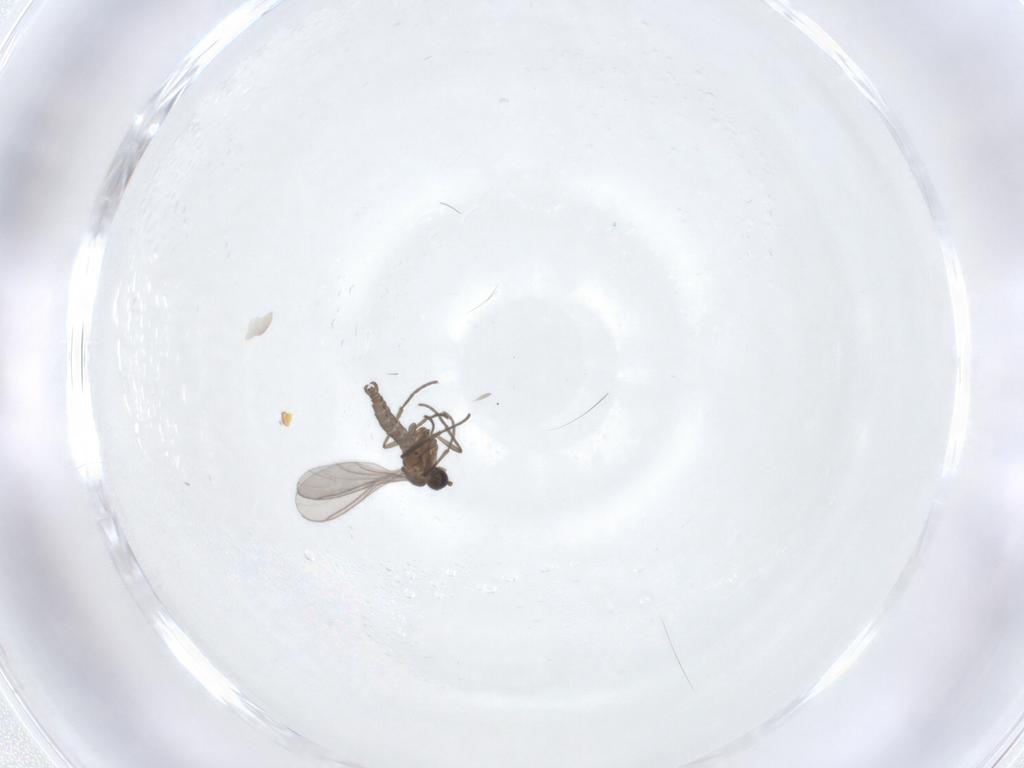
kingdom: Animalia
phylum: Arthropoda
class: Insecta
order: Diptera
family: Sciaridae
